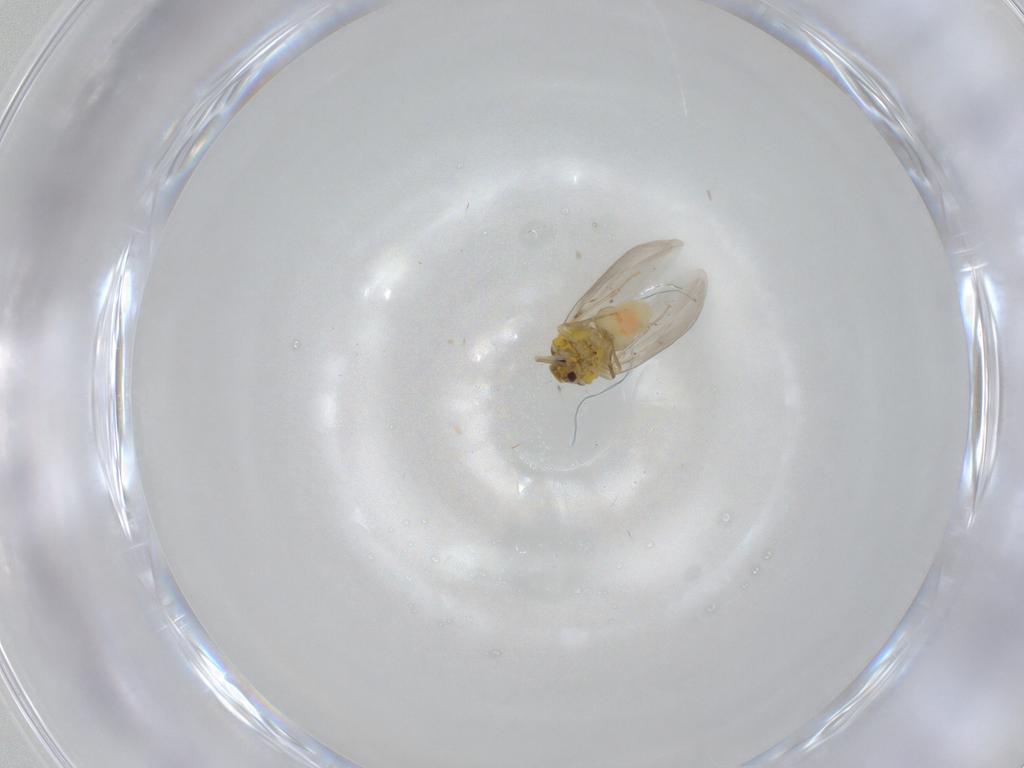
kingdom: Animalia
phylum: Arthropoda
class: Insecta
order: Hemiptera
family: Aleyrodidae
